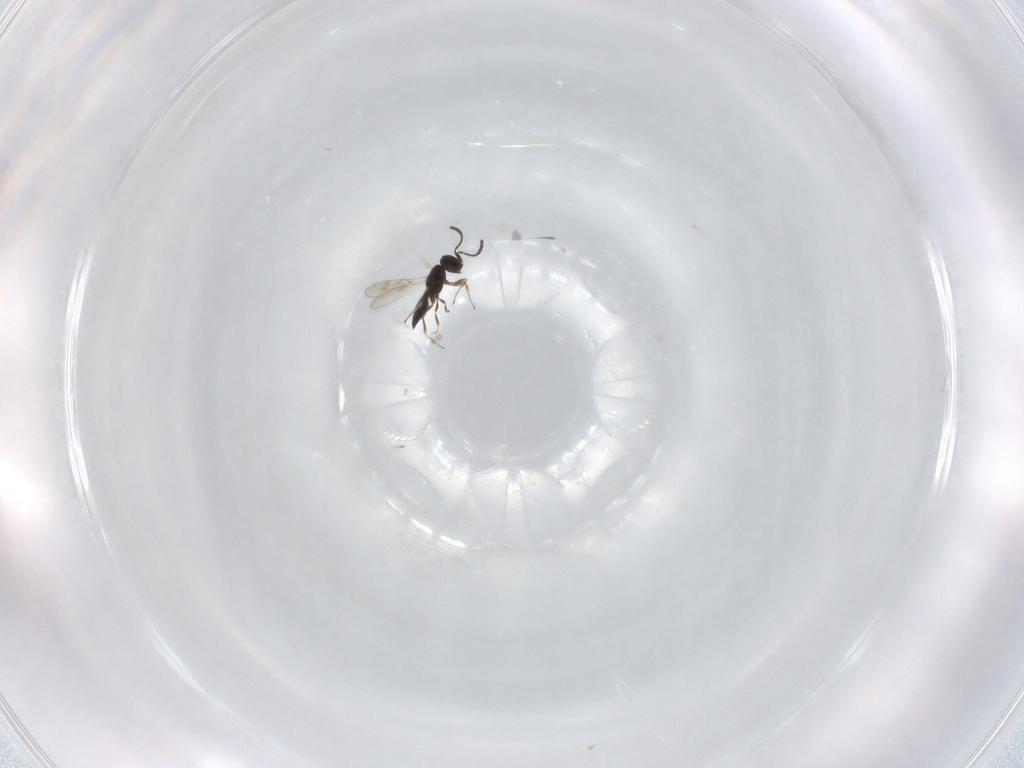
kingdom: Animalia
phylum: Arthropoda
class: Insecta
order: Hymenoptera
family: Scelionidae
